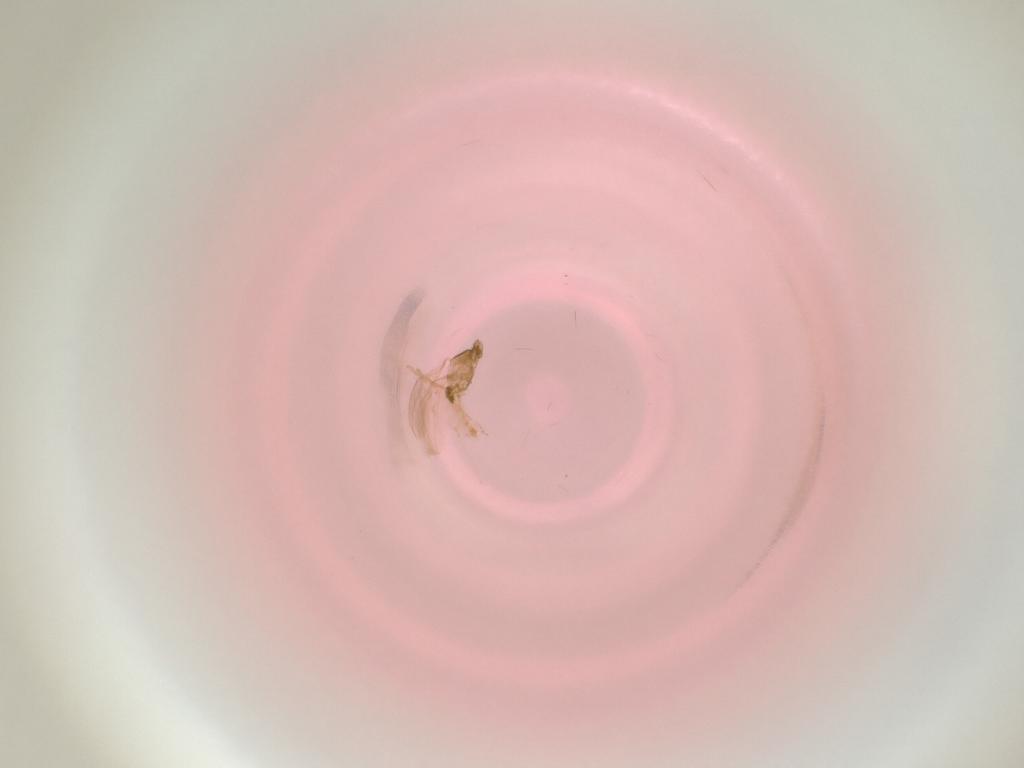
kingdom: Animalia
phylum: Arthropoda
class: Insecta
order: Diptera
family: Cecidomyiidae
